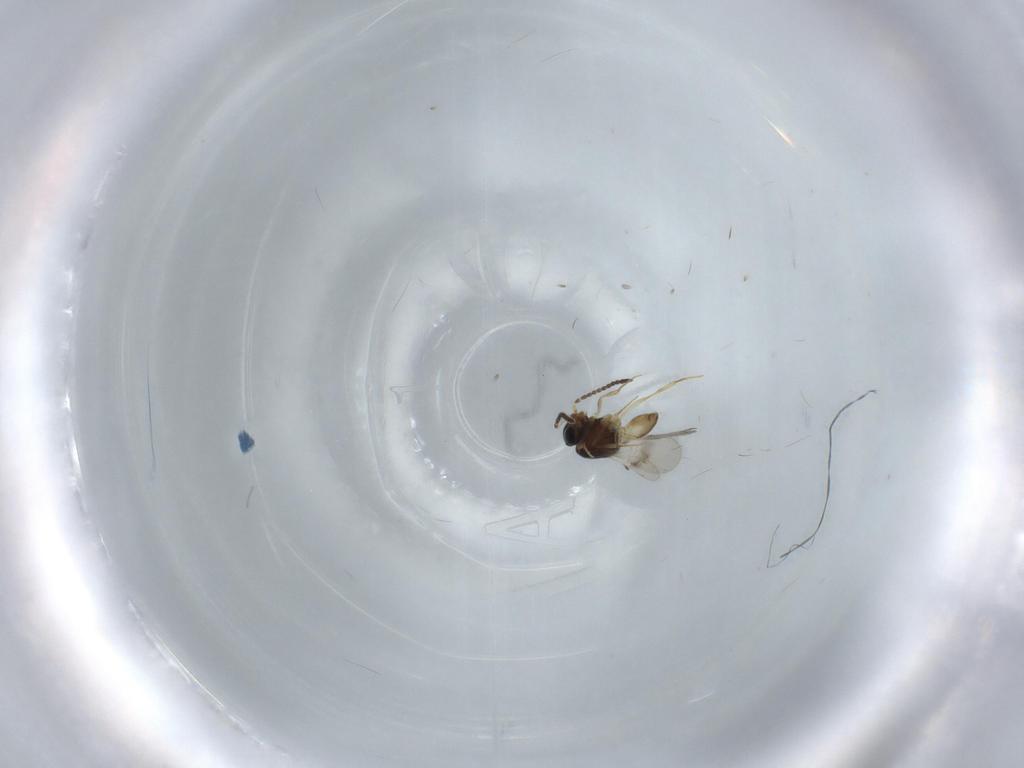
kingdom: Animalia
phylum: Arthropoda
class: Insecta
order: Hymenoptera
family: Scelionidae
